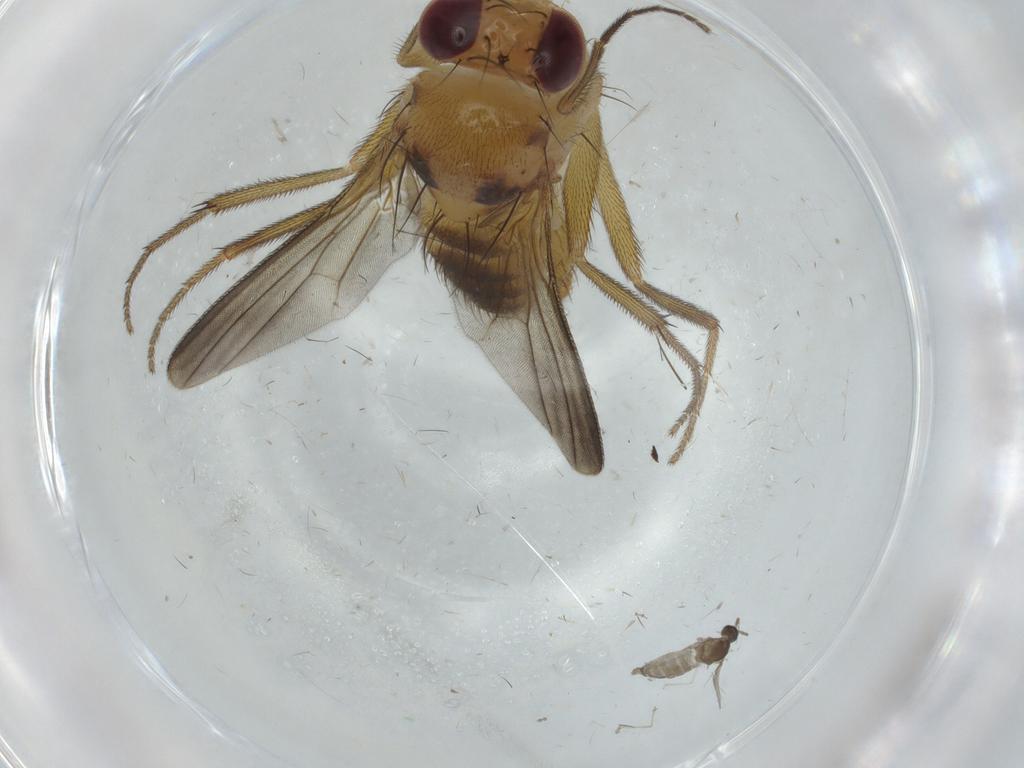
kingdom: Animalia
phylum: Arthropoda
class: Insecta
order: Diptera
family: Clusiidae
